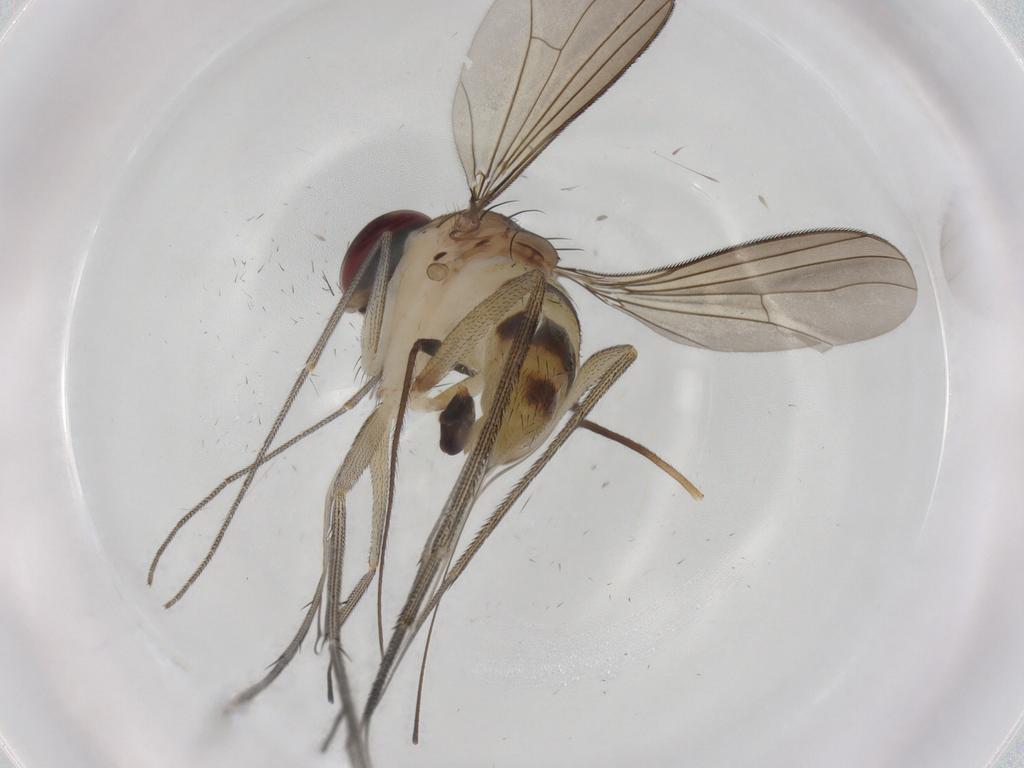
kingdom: Animalia
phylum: Arthropoda
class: Insecta
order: Diptera
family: Dolichopodidae
